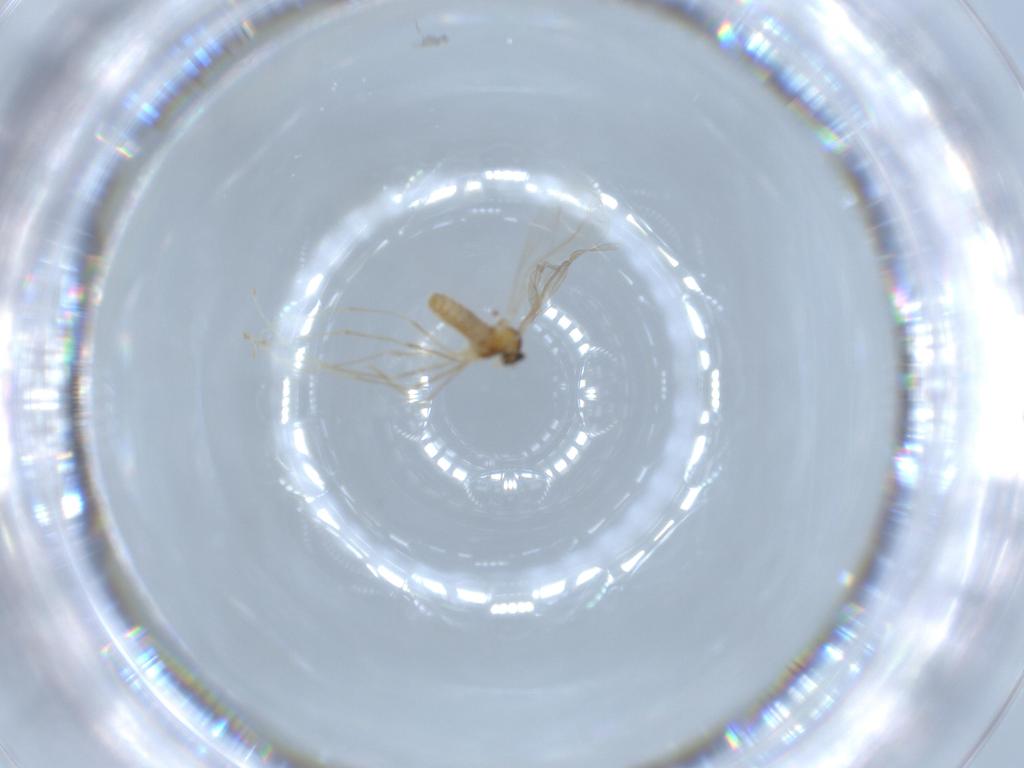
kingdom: Animalia
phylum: Arthropoda
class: Insecta
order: Diptera
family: Cecidomyiidae
